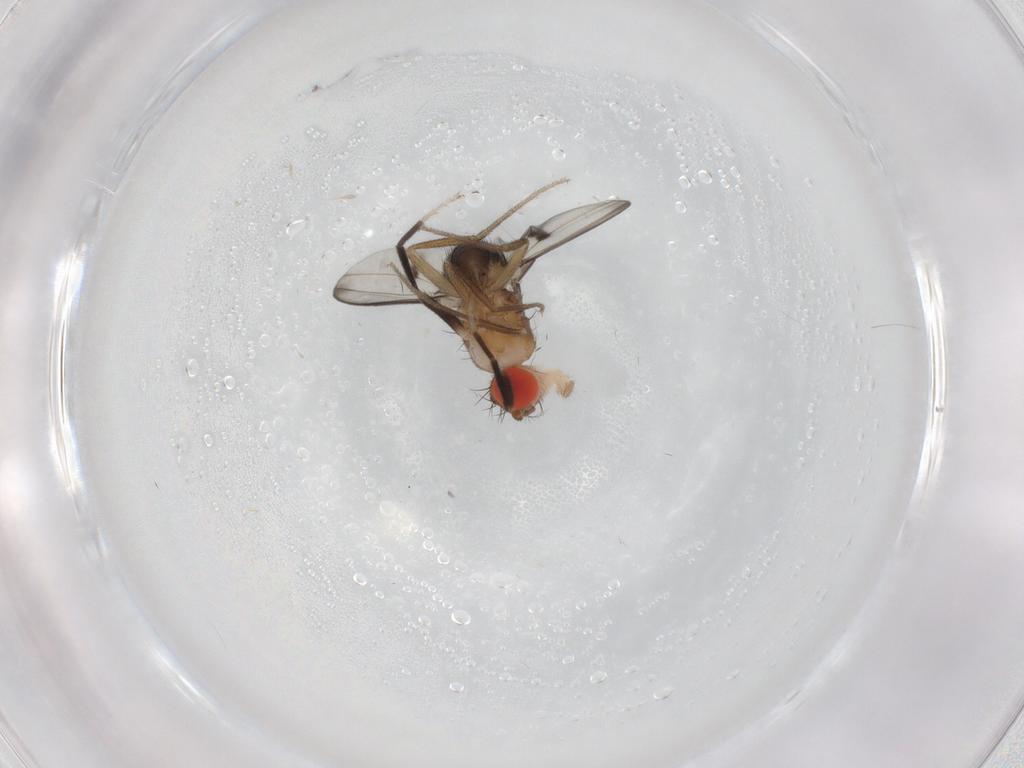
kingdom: Animalia
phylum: Arthropoda
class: Insecta
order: Diptera
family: Drosophilidae
